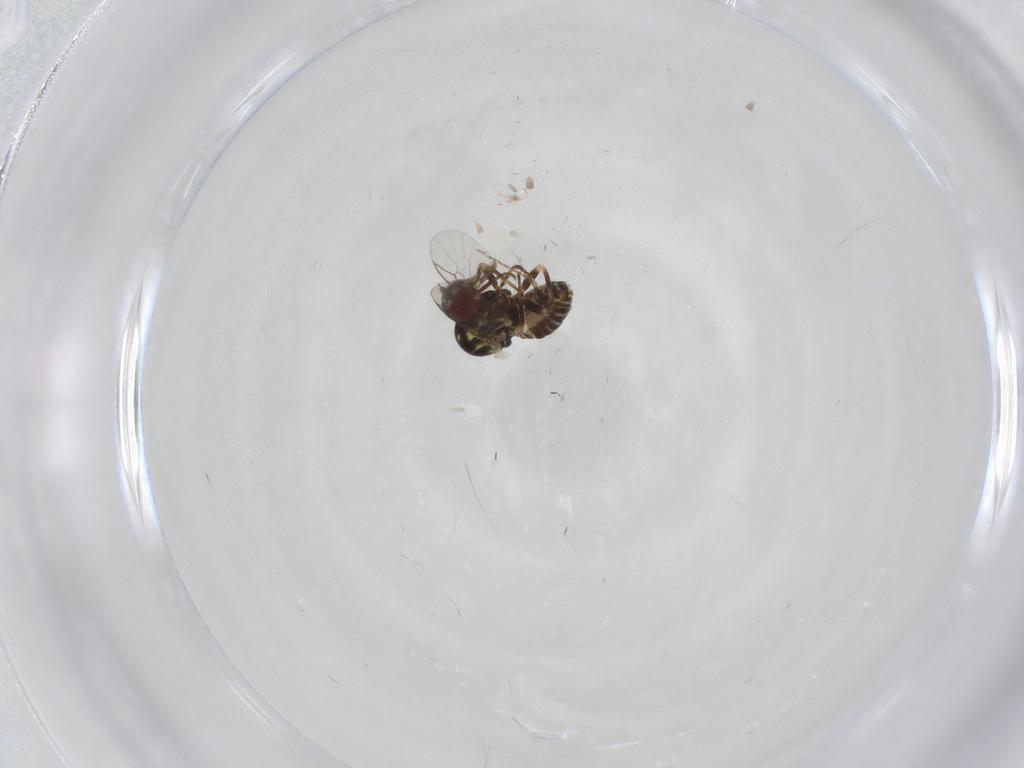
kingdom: Animalia
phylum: Arthropoda
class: Insecta
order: Diptera
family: Mythicomyiidae
